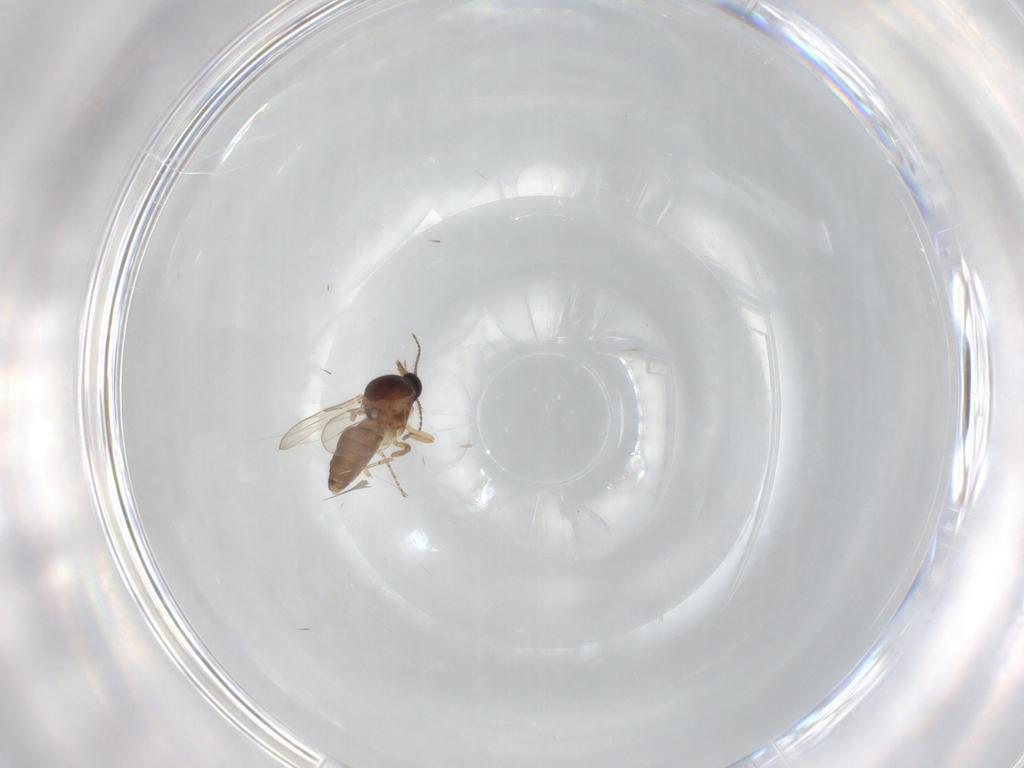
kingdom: Animalia
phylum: Arthropoda
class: Insecta
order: Diptera
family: Ceratopogonidae
